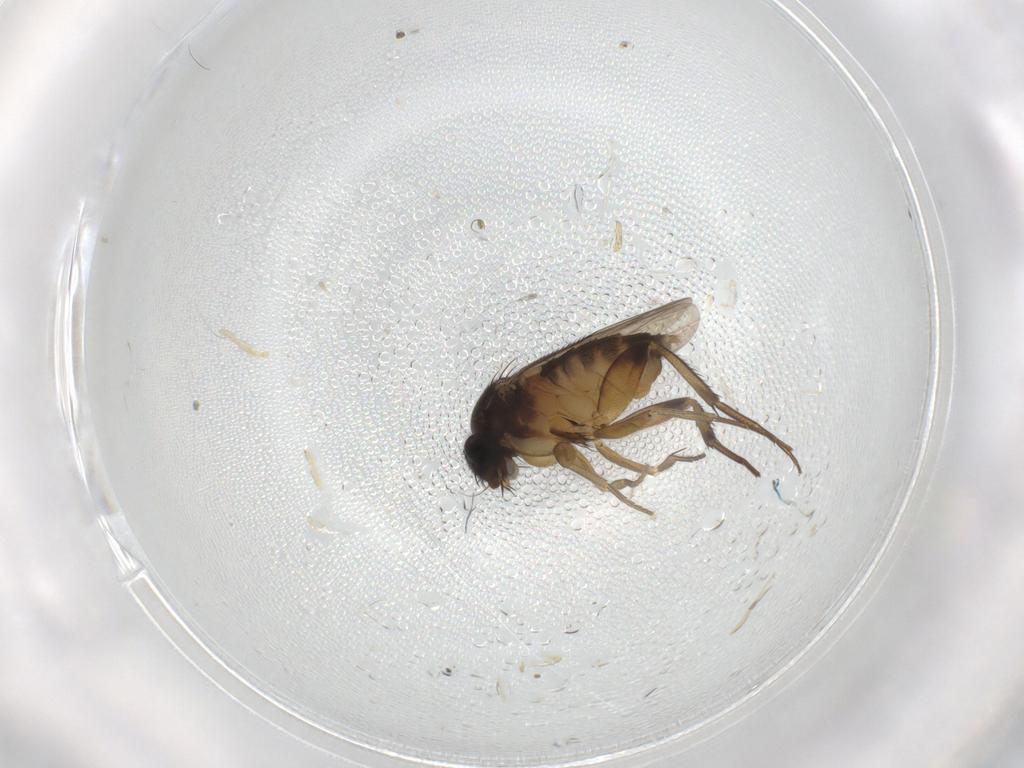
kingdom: Animalia
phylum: Arthropoda
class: Insecta
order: Diptera
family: Phoridae
